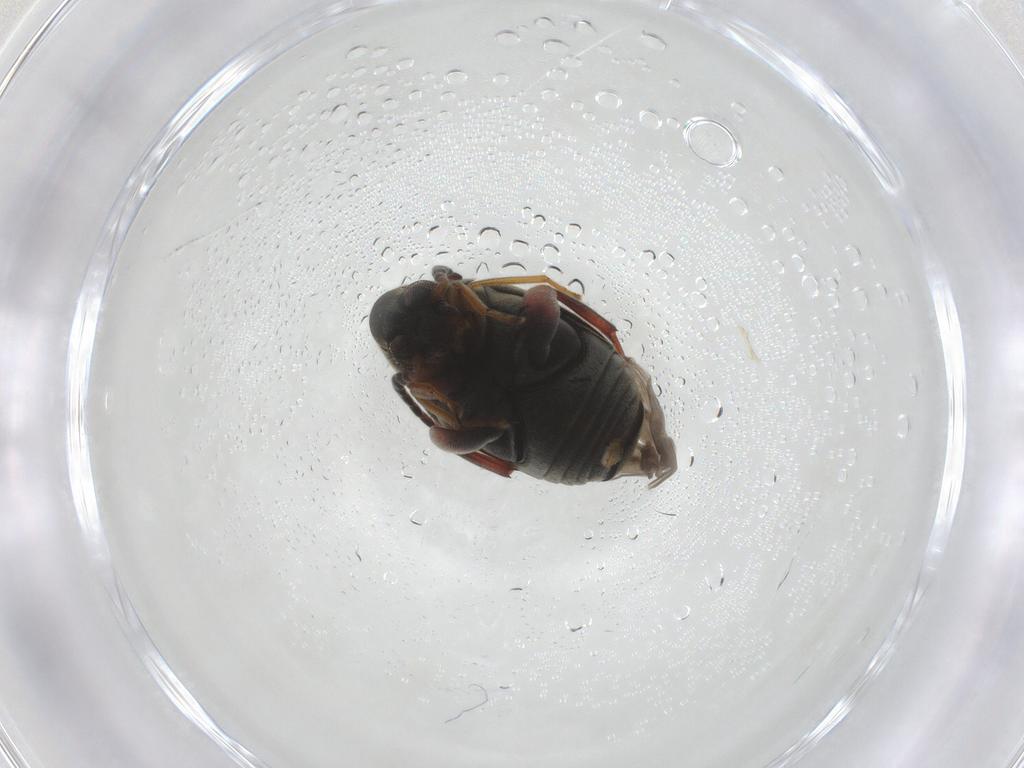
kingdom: Animalia
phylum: Arthropoda
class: Insecta
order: Coleoptera
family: Chrysomelidae
